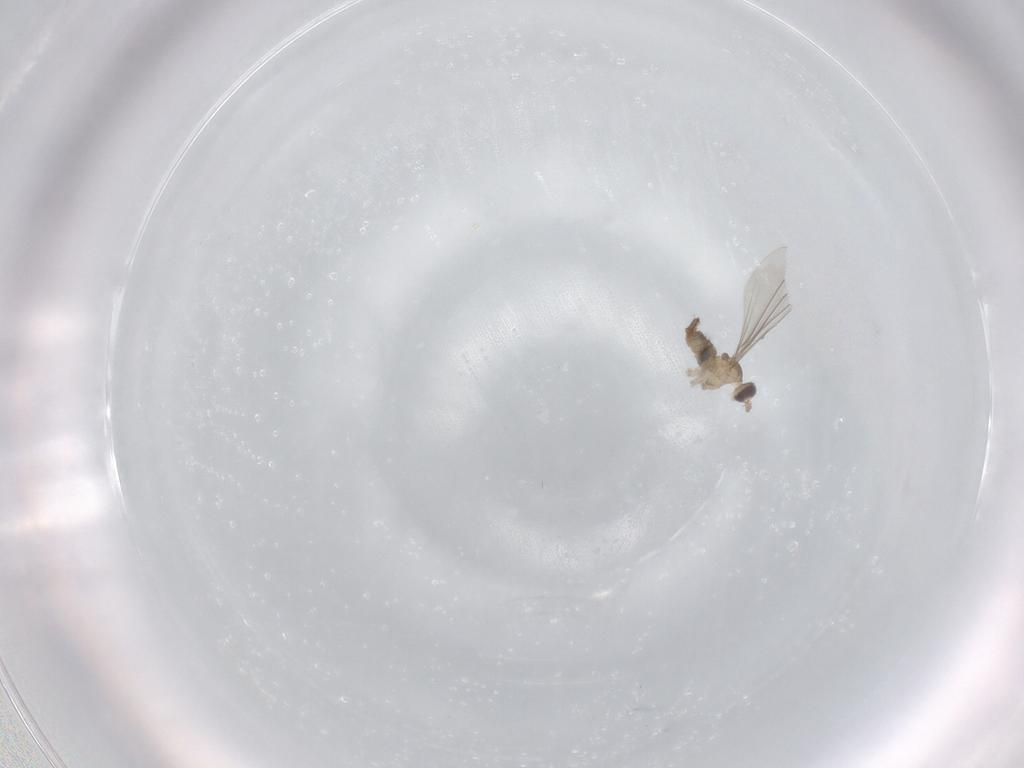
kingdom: Animalia
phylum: Arthropoda
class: Insecta
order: Diptera
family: Cecidomyiidae
